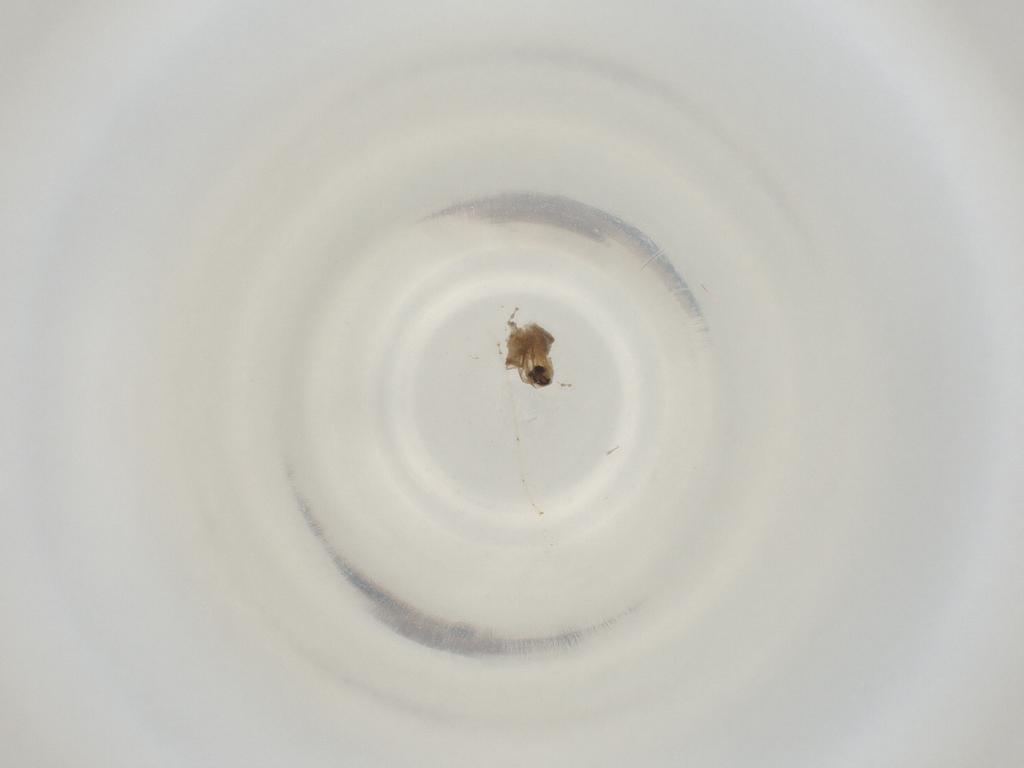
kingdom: Animalia
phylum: Arthropoda
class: Insecta
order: Diptera
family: Cecidomyiidae
